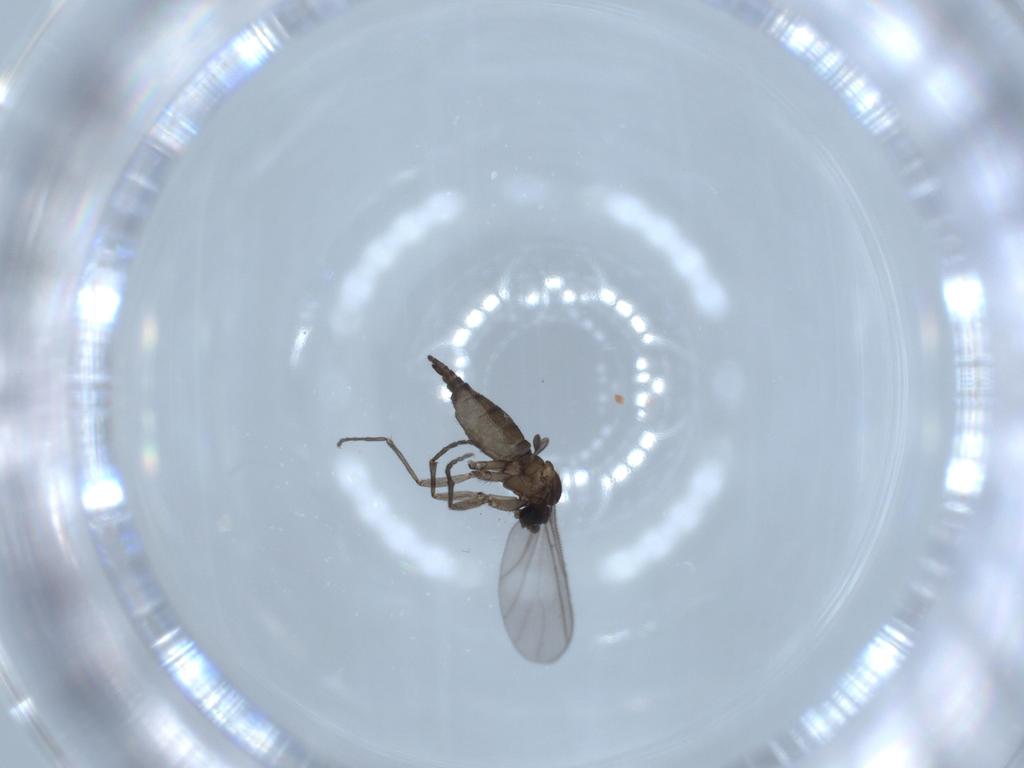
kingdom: Animalia
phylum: Arthropoda
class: Insecta
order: Diptera
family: Sciaridae
